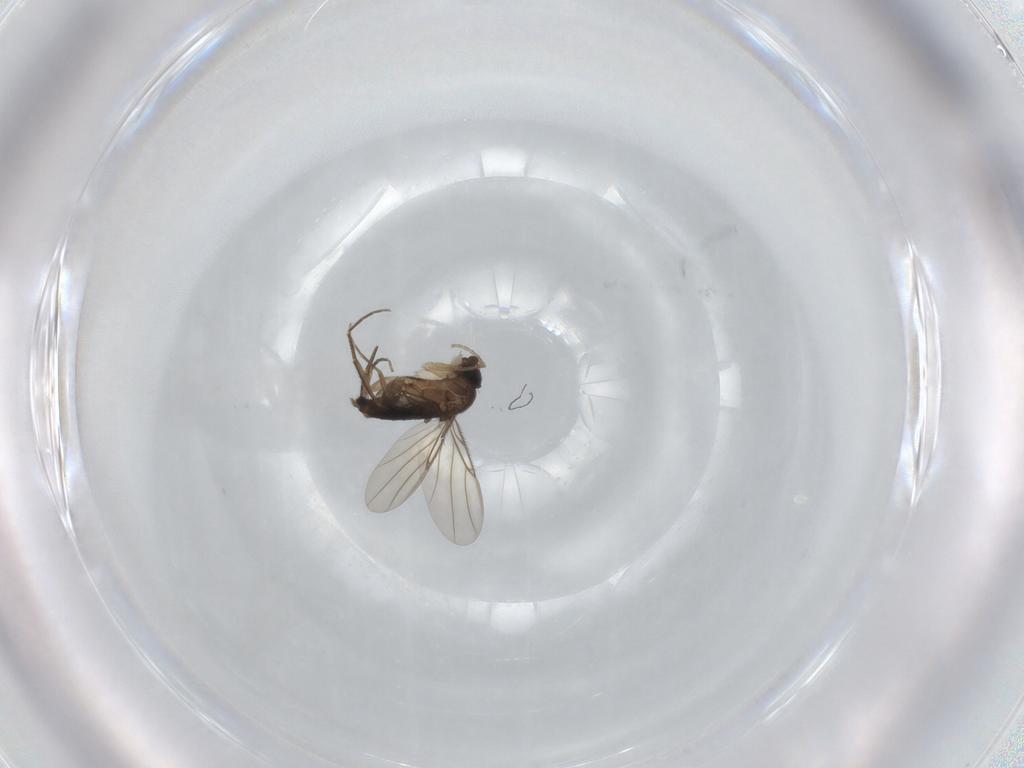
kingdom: Animalia
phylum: Arthropoda
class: Insecta
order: Diptera
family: Phoridae
